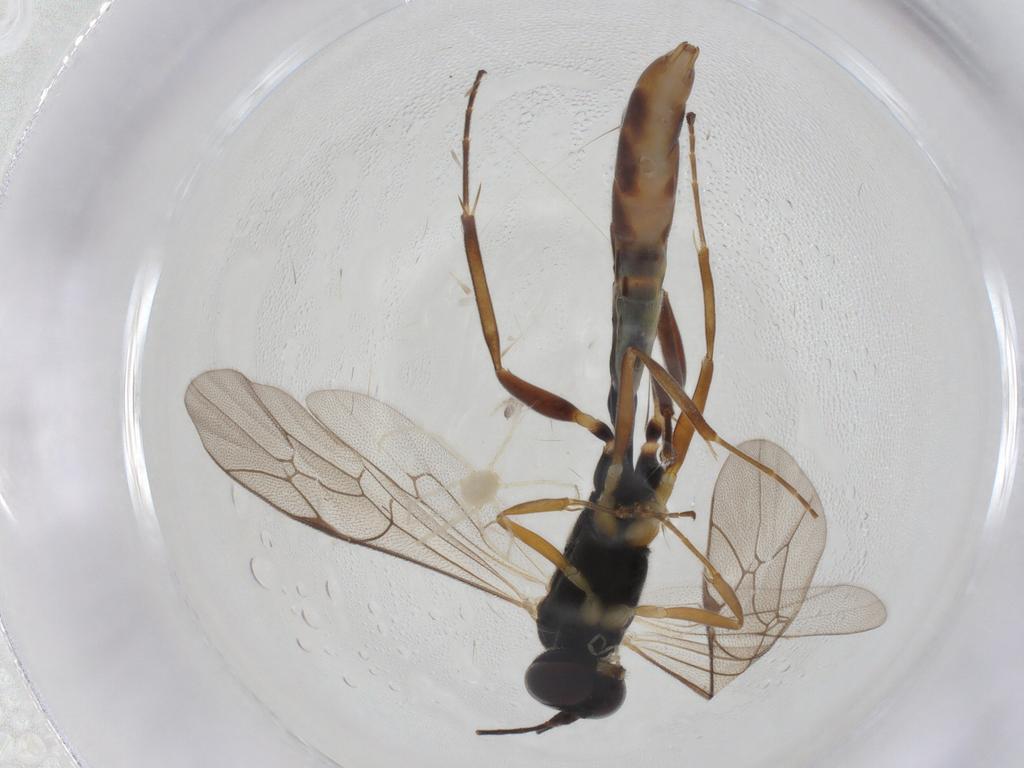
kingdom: Animalia
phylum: Arthropoda
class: Insecta
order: Hymenoptera
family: Ichneumonidae
